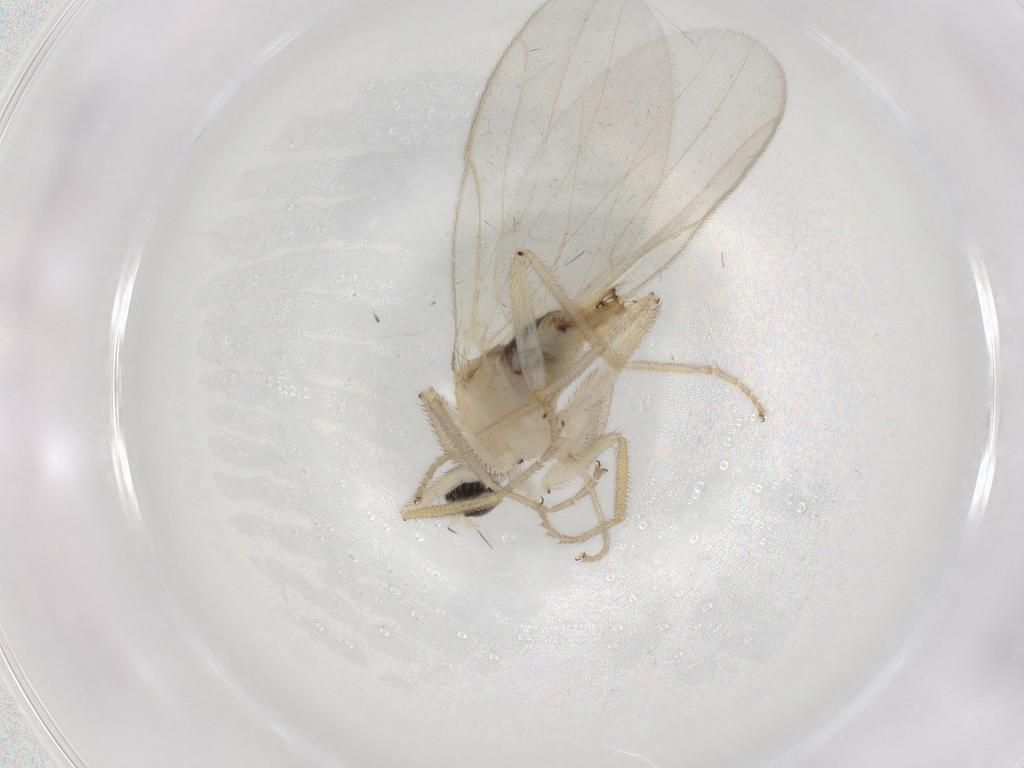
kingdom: Animalia
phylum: Arthropoda
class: Insecta
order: Diptera
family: Hybotidae
